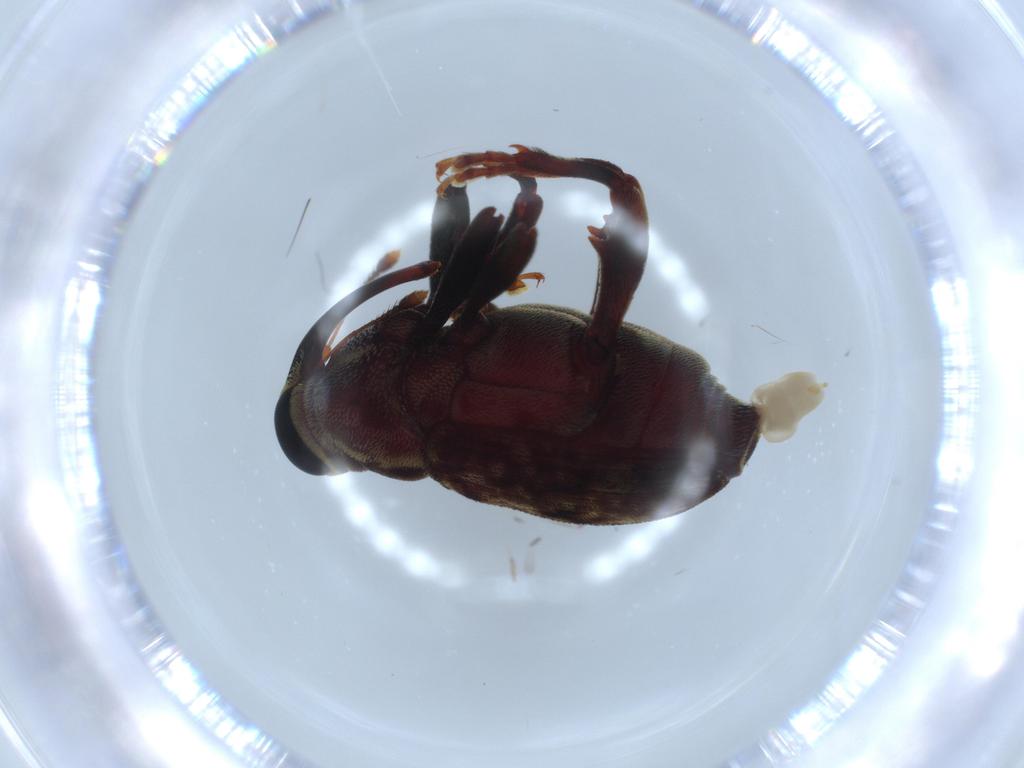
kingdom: Animalia
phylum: Arthropoda
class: Insecta
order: Coleoptera
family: Curculionidae
